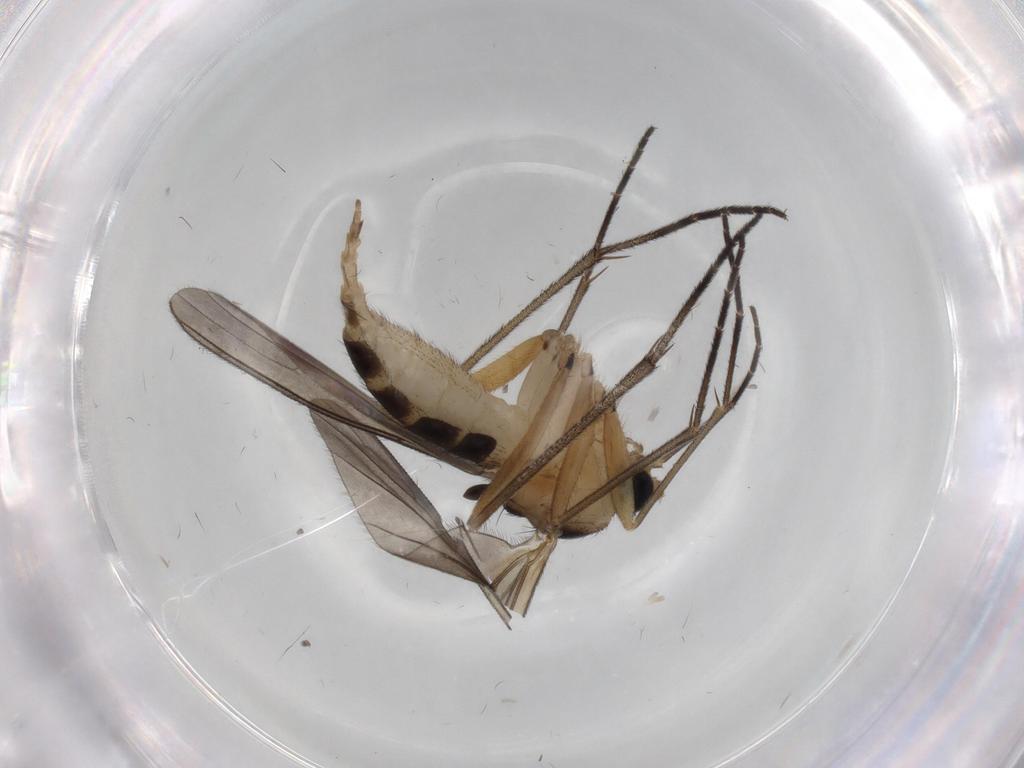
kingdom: Animalia
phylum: Arthropoda
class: Insecta
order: Diptera
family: Sciaridae
